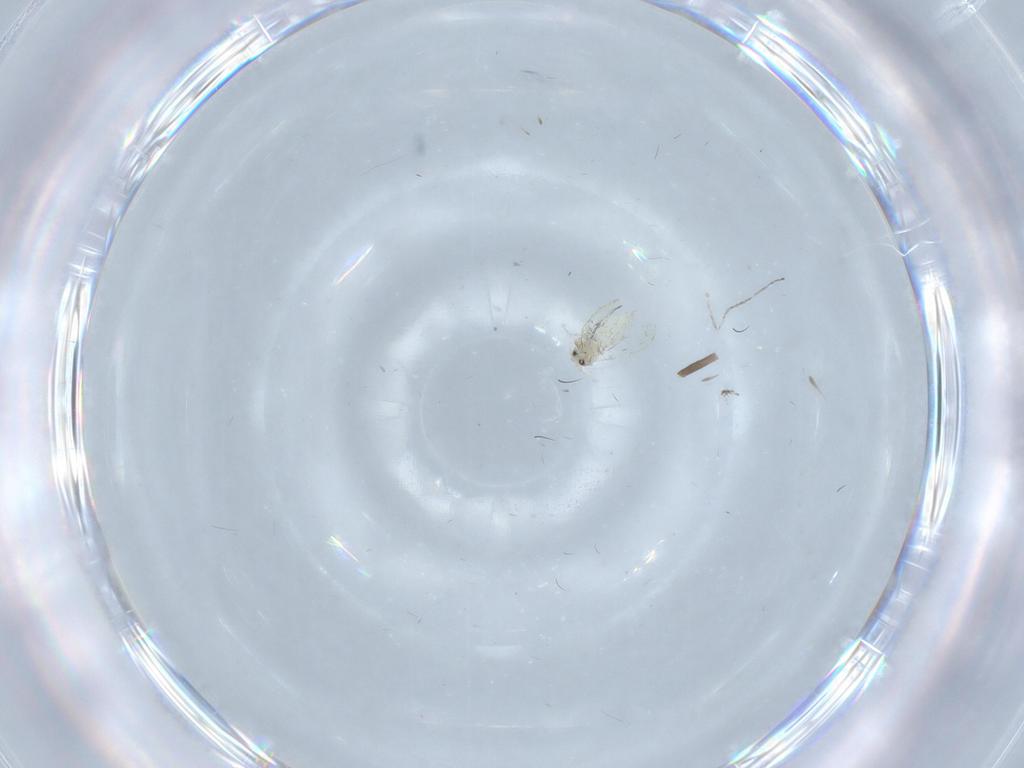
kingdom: Animalia
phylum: Arthropoda
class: Insecta
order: Hemiptera
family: Aleyrodidae
